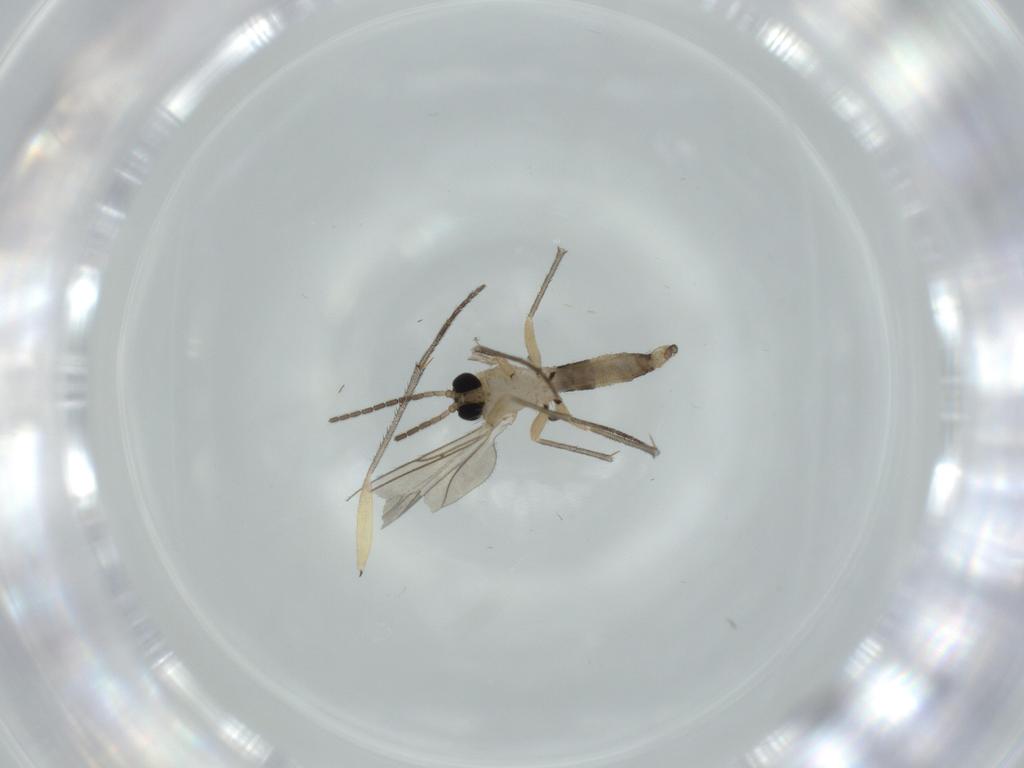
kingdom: Animalia
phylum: Arthropoda
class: Insecta
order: Diptera
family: Sciaridae
